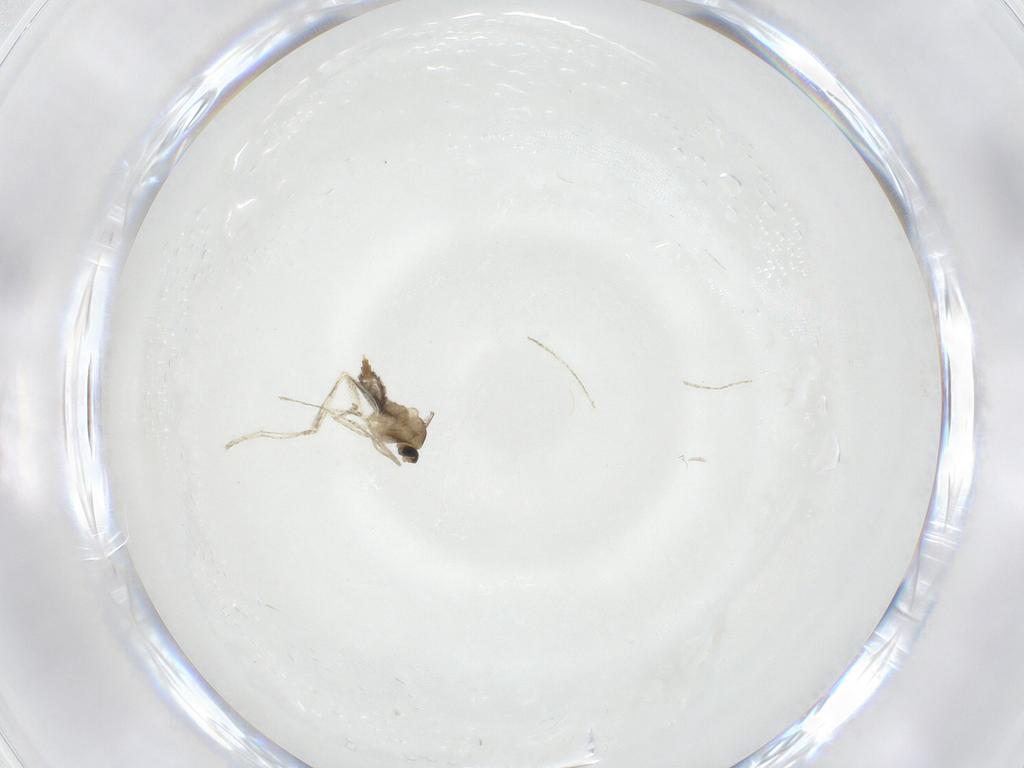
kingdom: Animalia
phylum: Arthropoda
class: Insecta
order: Diptera
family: Cecidomyiidae
